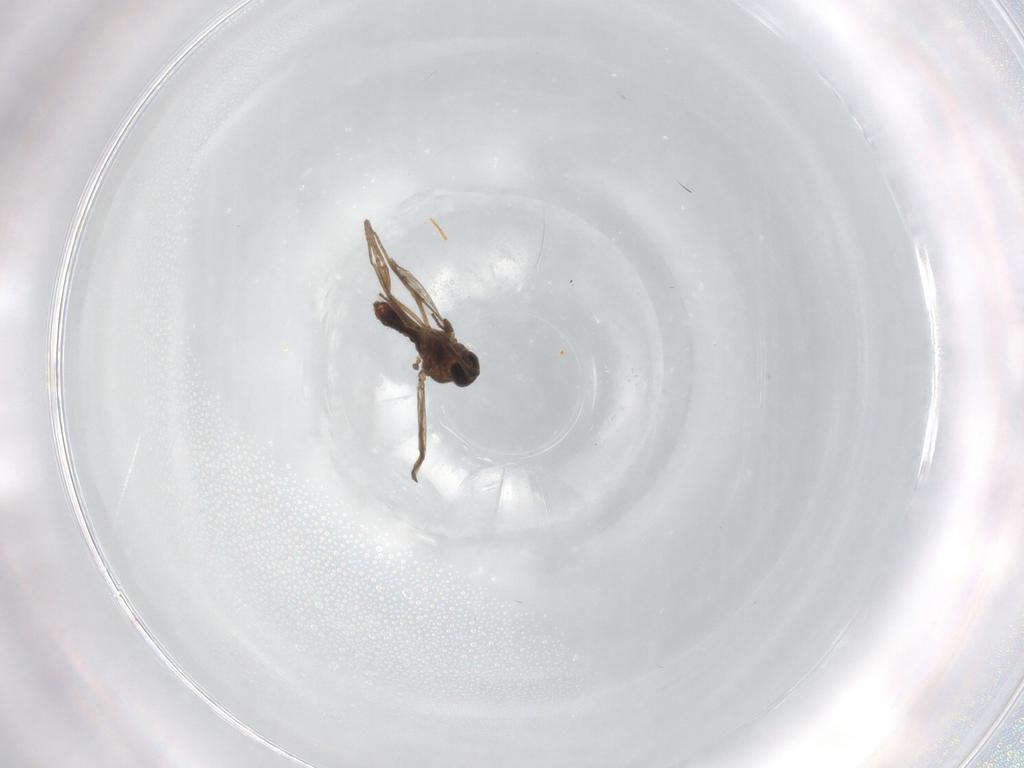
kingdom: Animalia
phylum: Arthropoda
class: Insecta
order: Diptera
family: Ceratopogonidae
